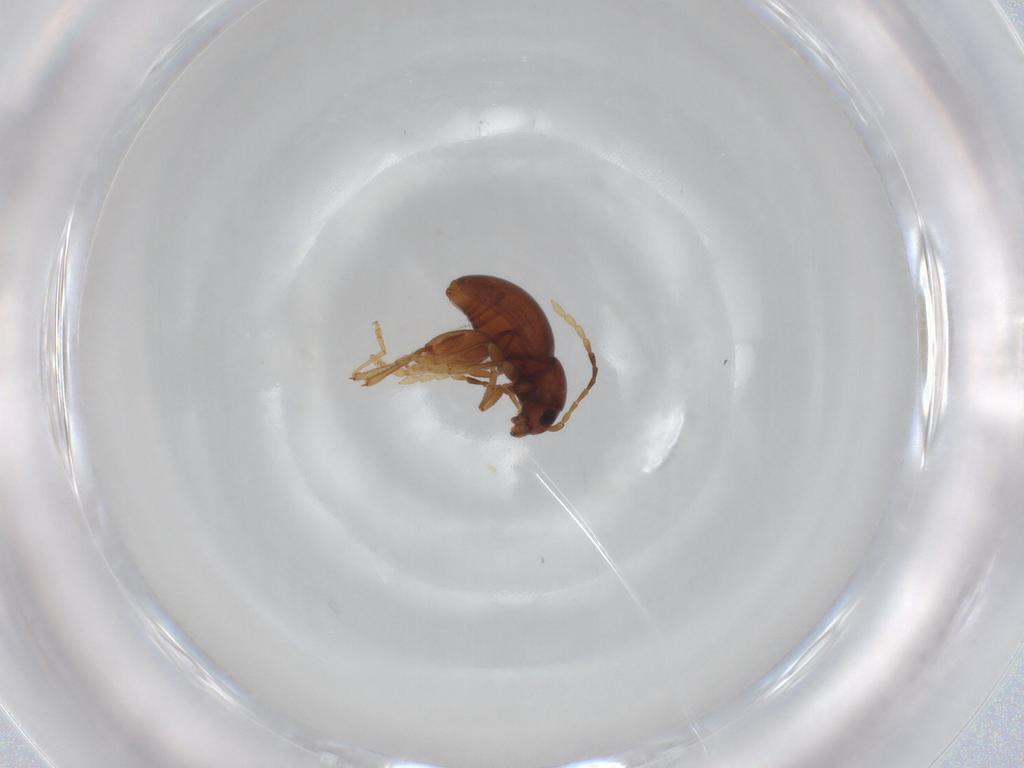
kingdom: Animalia
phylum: Arthropoda
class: Insecta
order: Coleoptera
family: Chrysomelidae
